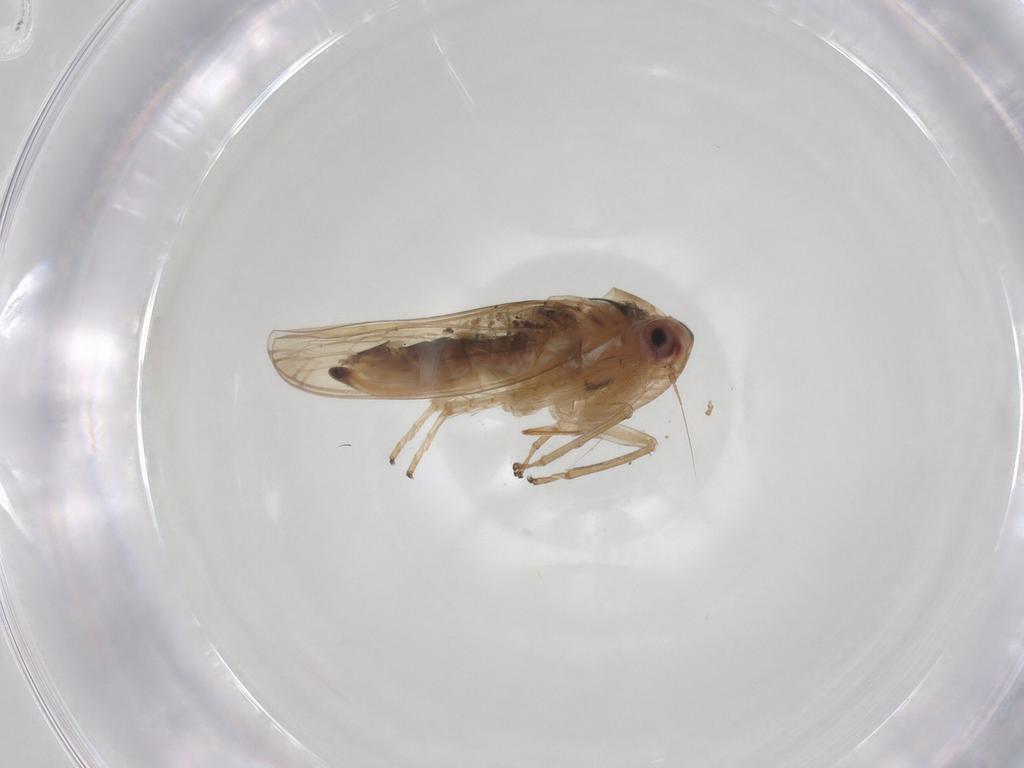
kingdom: Animalia
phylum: Arthropoda
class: Insecta
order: Hemiptera
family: Cicadellidae
